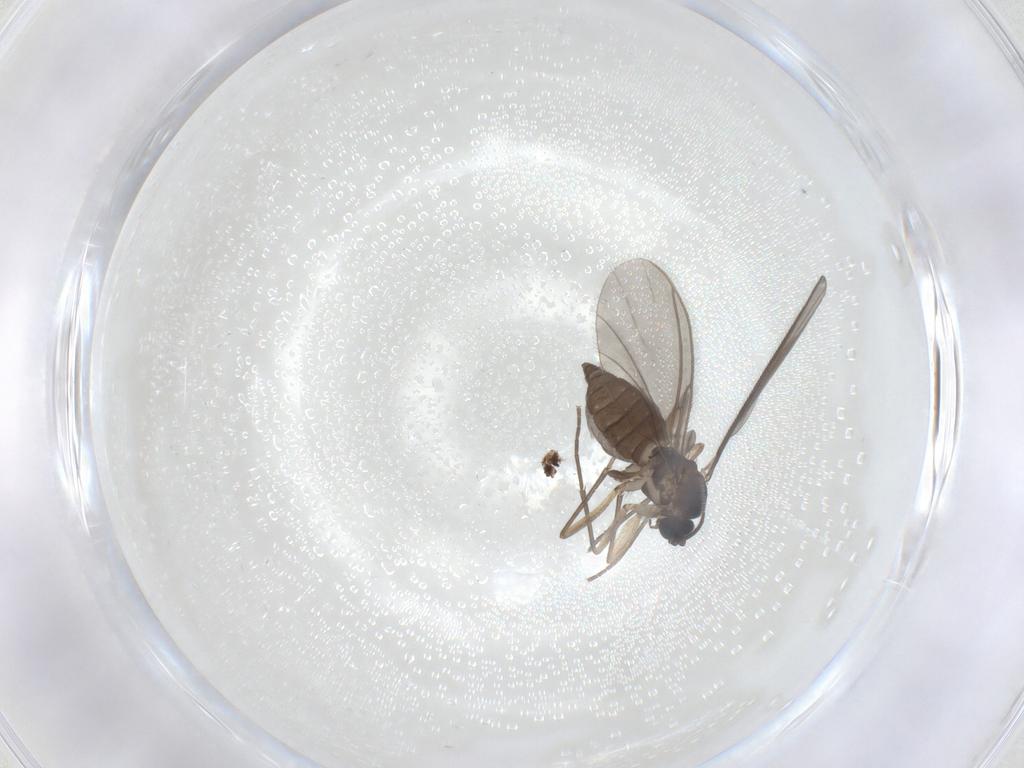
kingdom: Animalia
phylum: Arthropoda
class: Insecta
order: Diptera
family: Sciaridae
